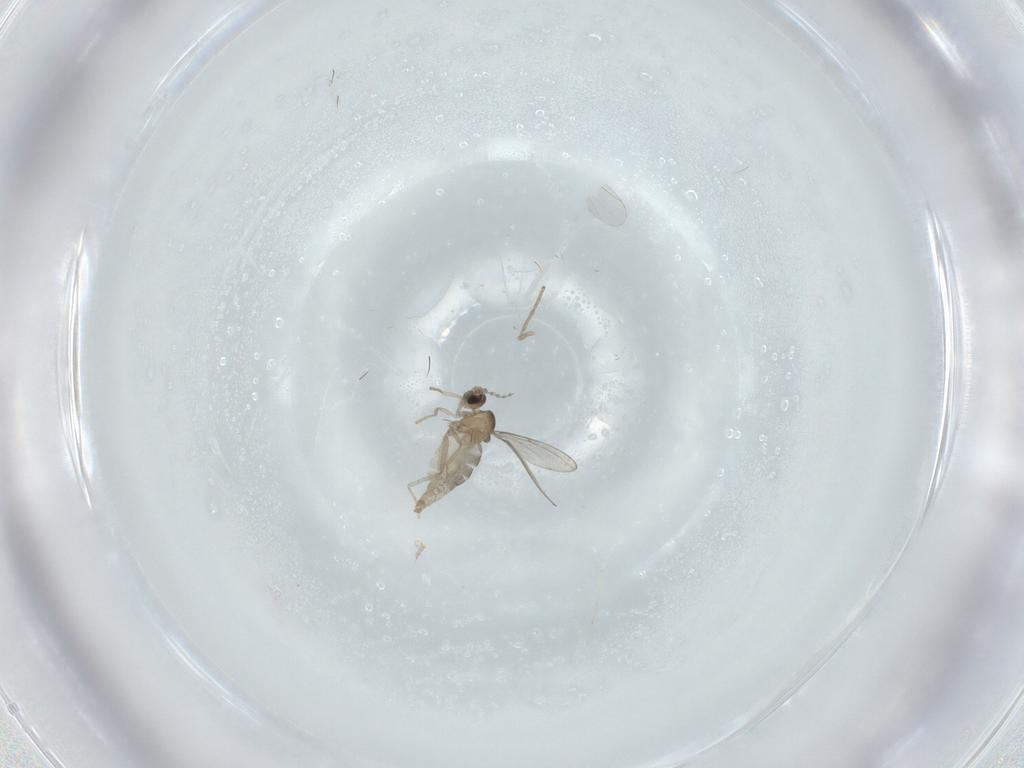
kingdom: Animalia
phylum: Arthropoda
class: Insecta
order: Diptera
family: Cecidomyiidae
